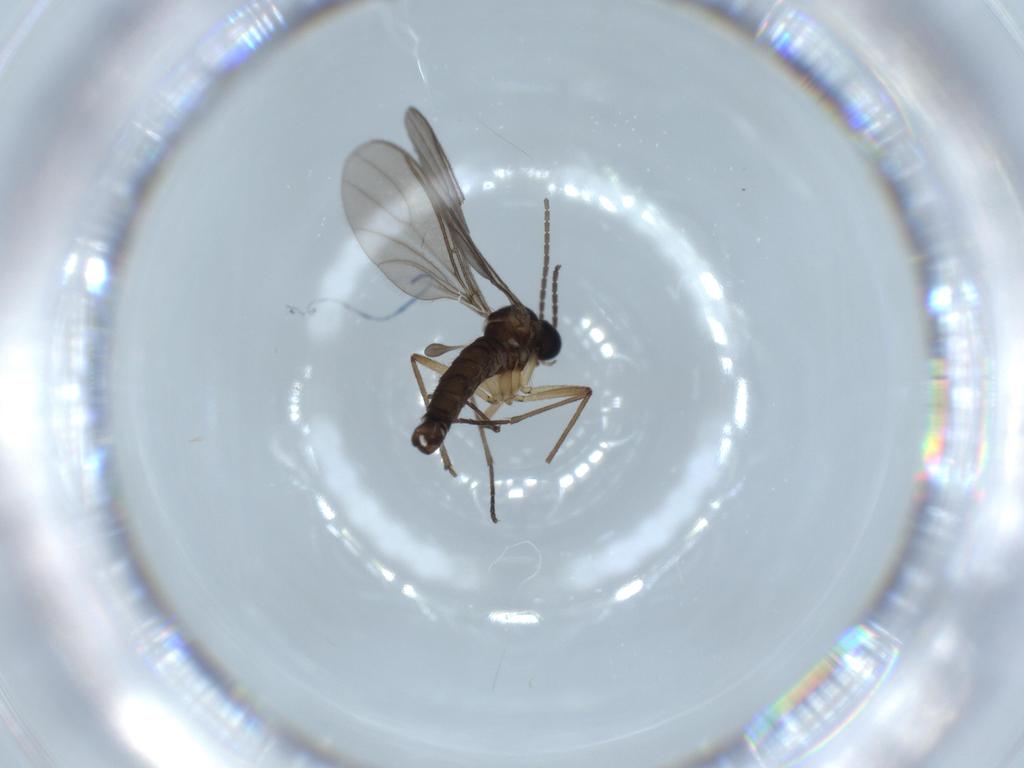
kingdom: Animalia
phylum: Arthropoda
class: Insecta
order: Diptera
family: Sciaridae
